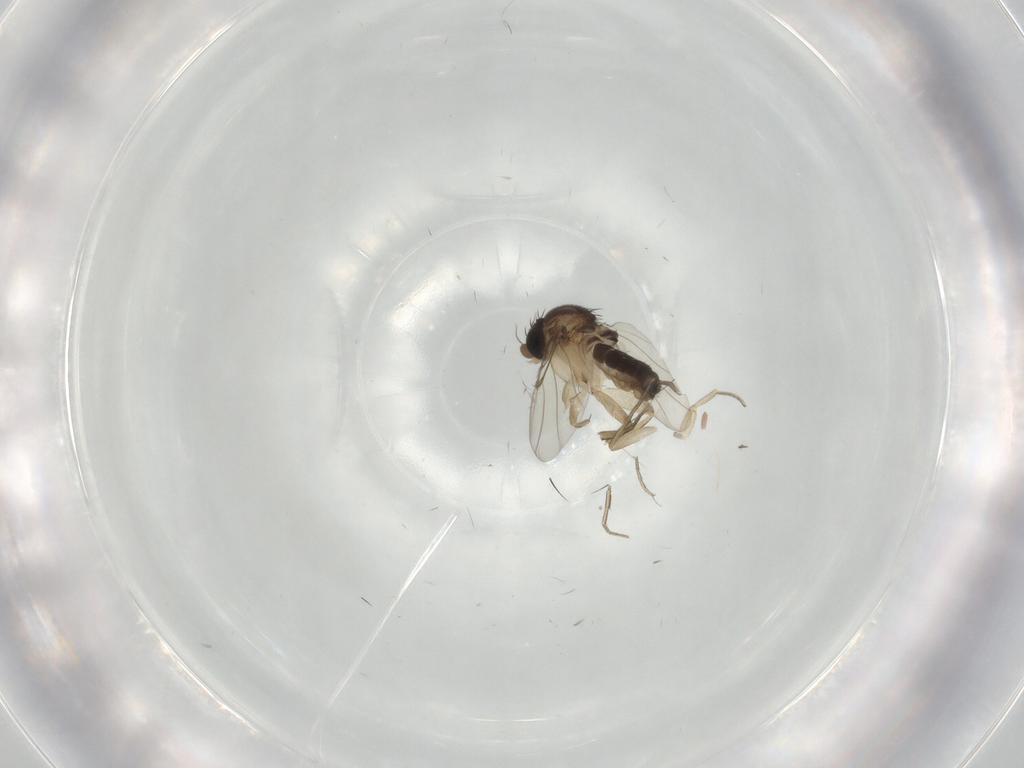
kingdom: Animalia
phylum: Arthropoda
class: Insecta
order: Diptera
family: Phoridae
